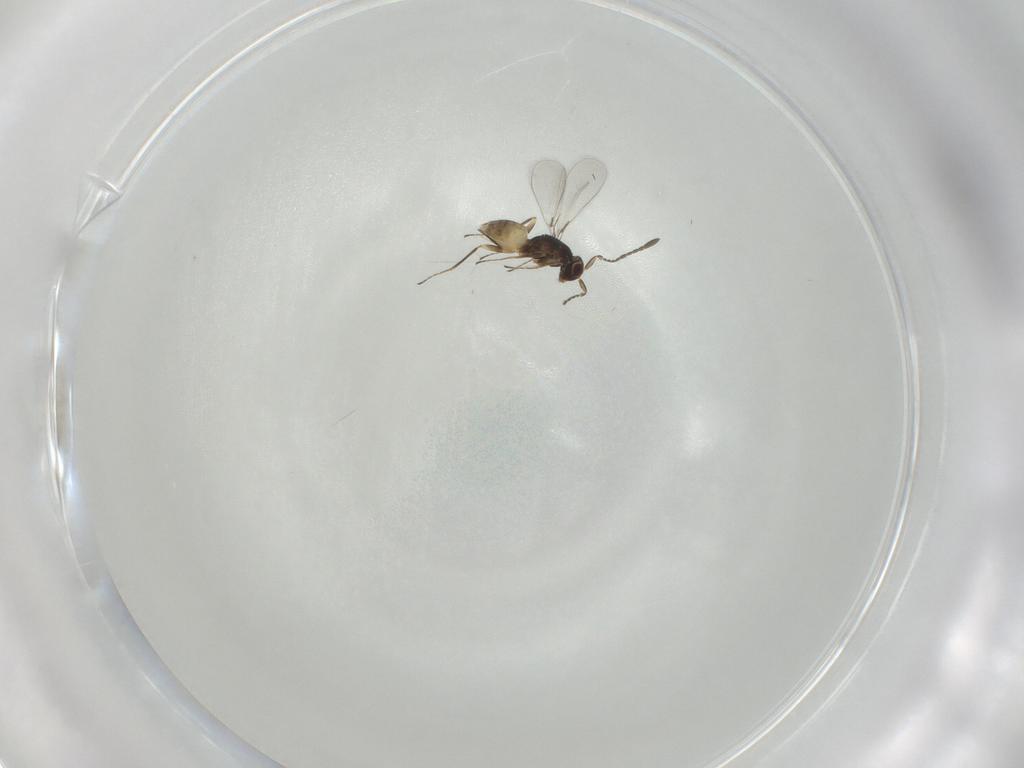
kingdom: Animalia
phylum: Arthropoda
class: Insecta
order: Hymenoptera
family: Mymaridae
